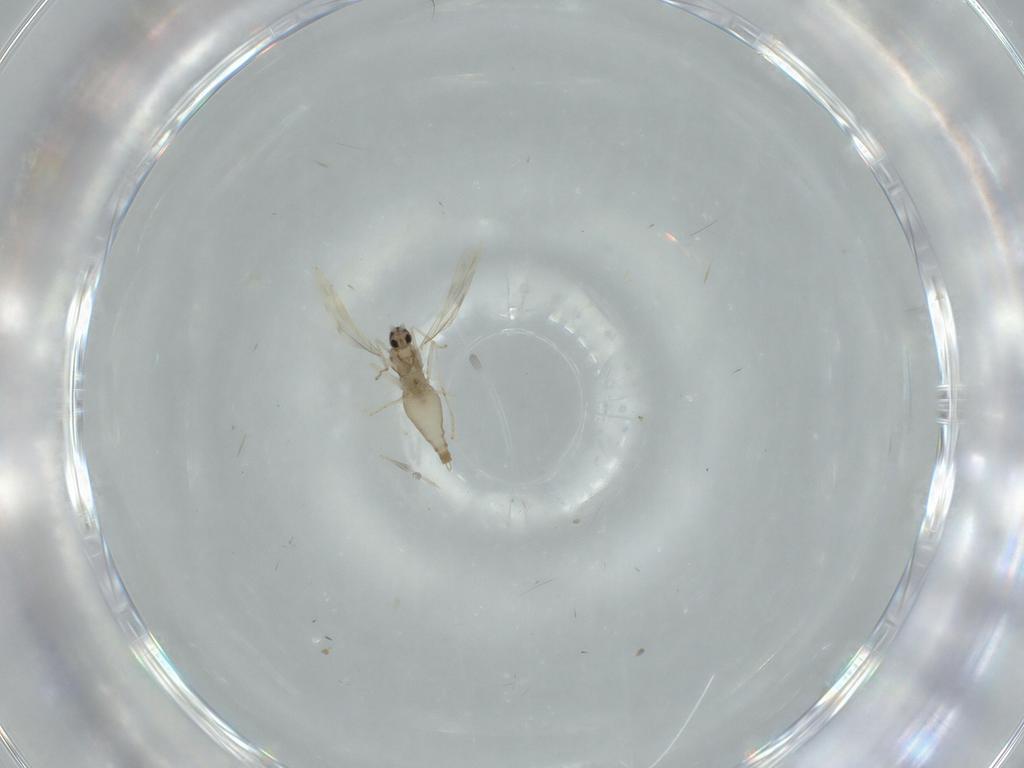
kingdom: Animalia
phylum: Arthropoda
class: Insecta
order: Diptera
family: Cecidomyiidae
